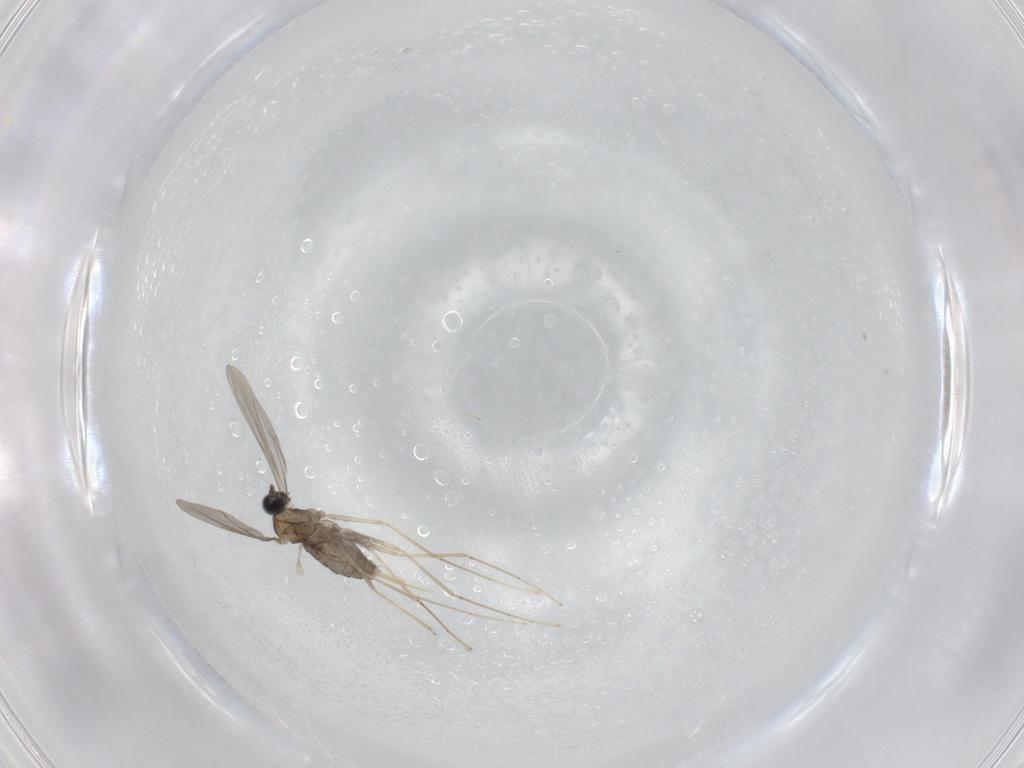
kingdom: Animalia
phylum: Arthropoda
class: Insecta
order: Diptera
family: Cecidomyiidae
